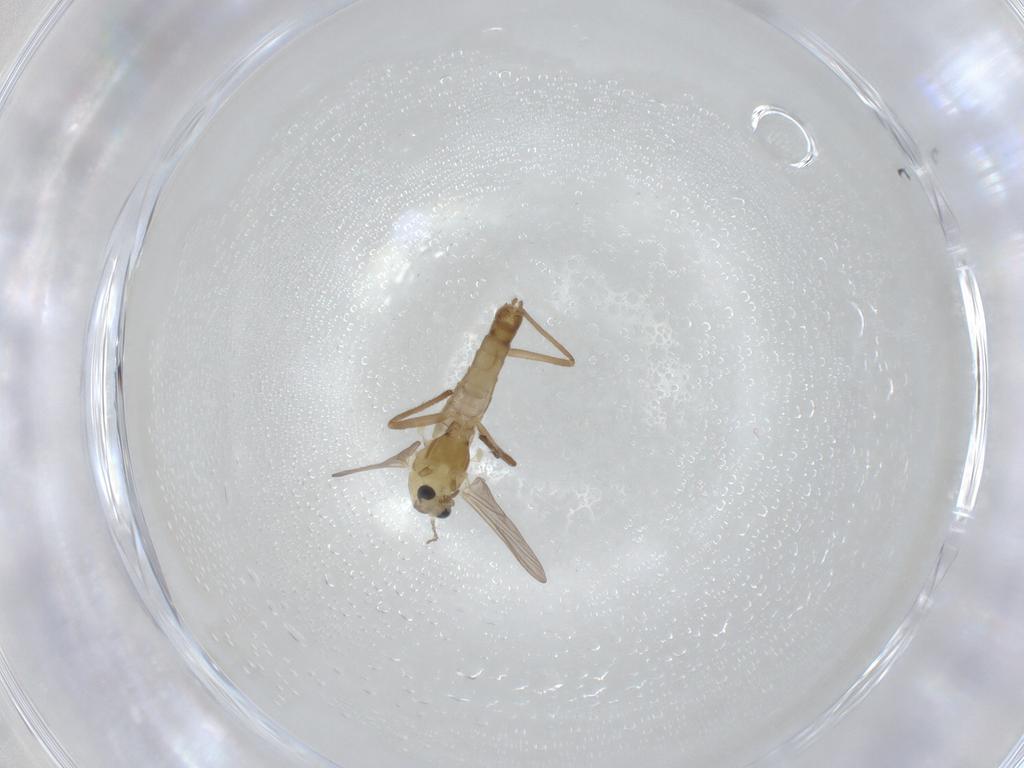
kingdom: Animalia
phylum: Arthropoda
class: Insecta
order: Diptera
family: Chironomidae
